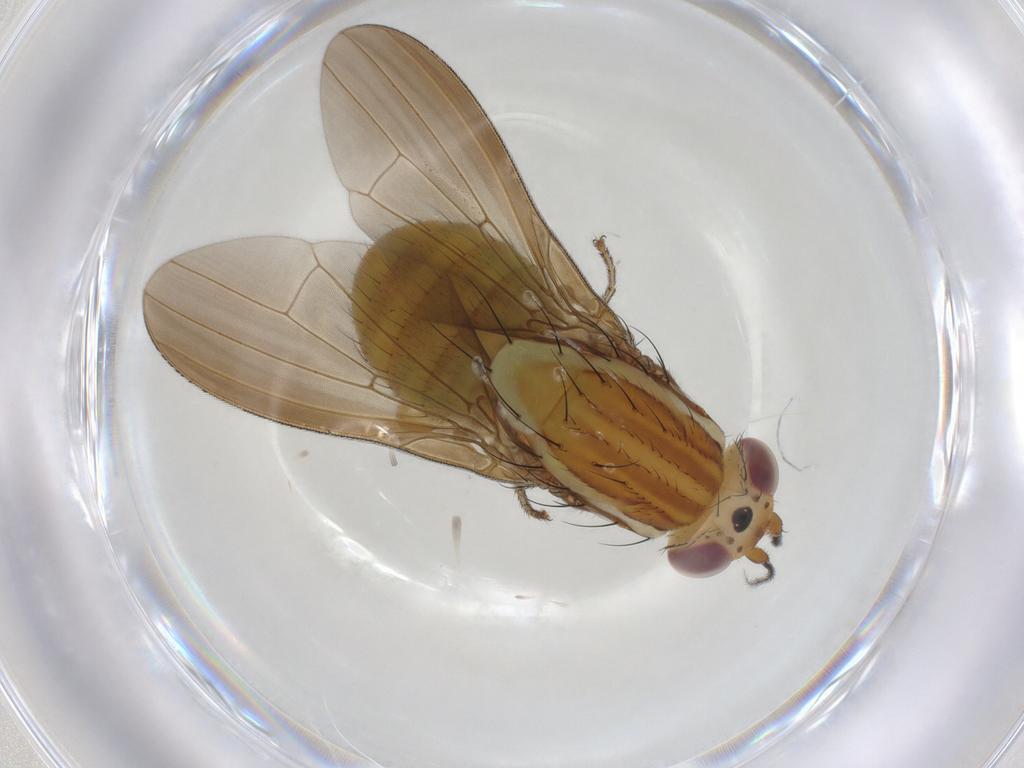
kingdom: Animalia
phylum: Arthropoda
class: Insecta
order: Diptera
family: Lauxaniidae
